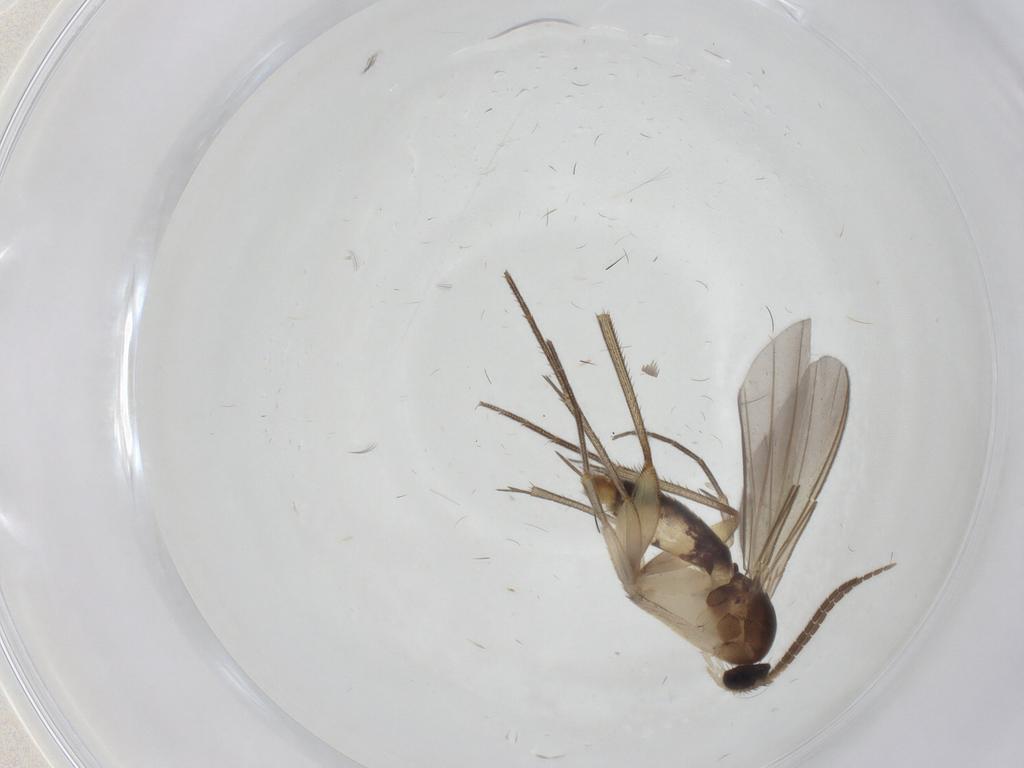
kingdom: Animalia
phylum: Arthropoda
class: Insecta
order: Diptera
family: Mycetophilidae
